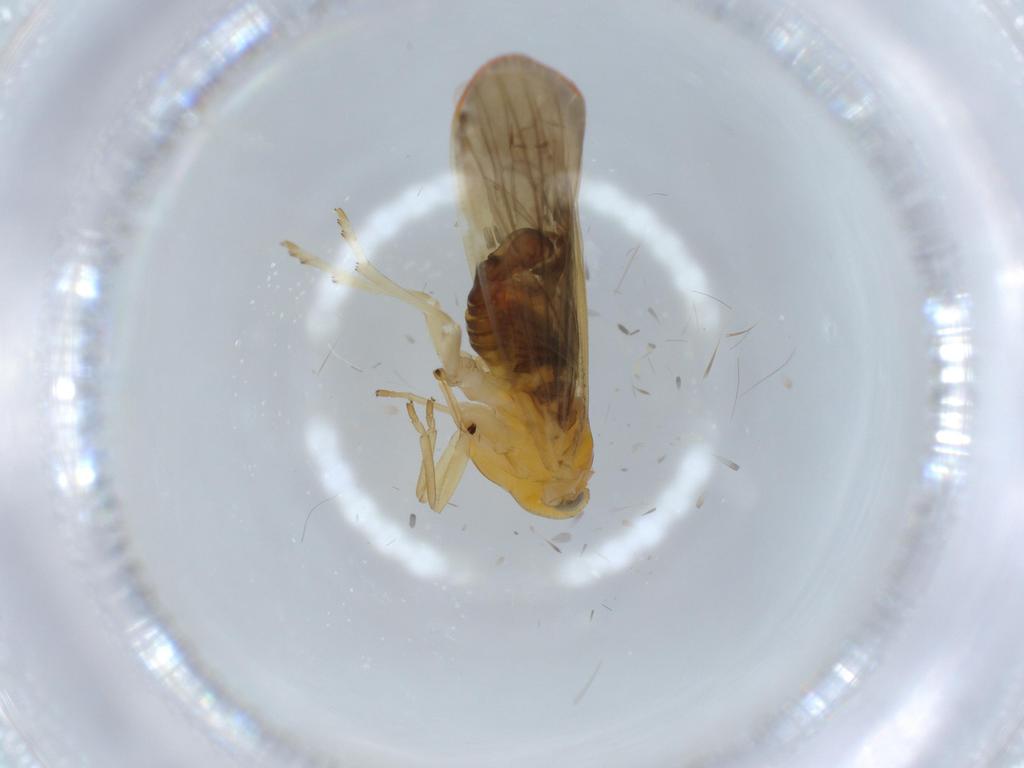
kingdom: Animalia
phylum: Arthropoda
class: Insecta
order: Hemiptera
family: Derbidae
